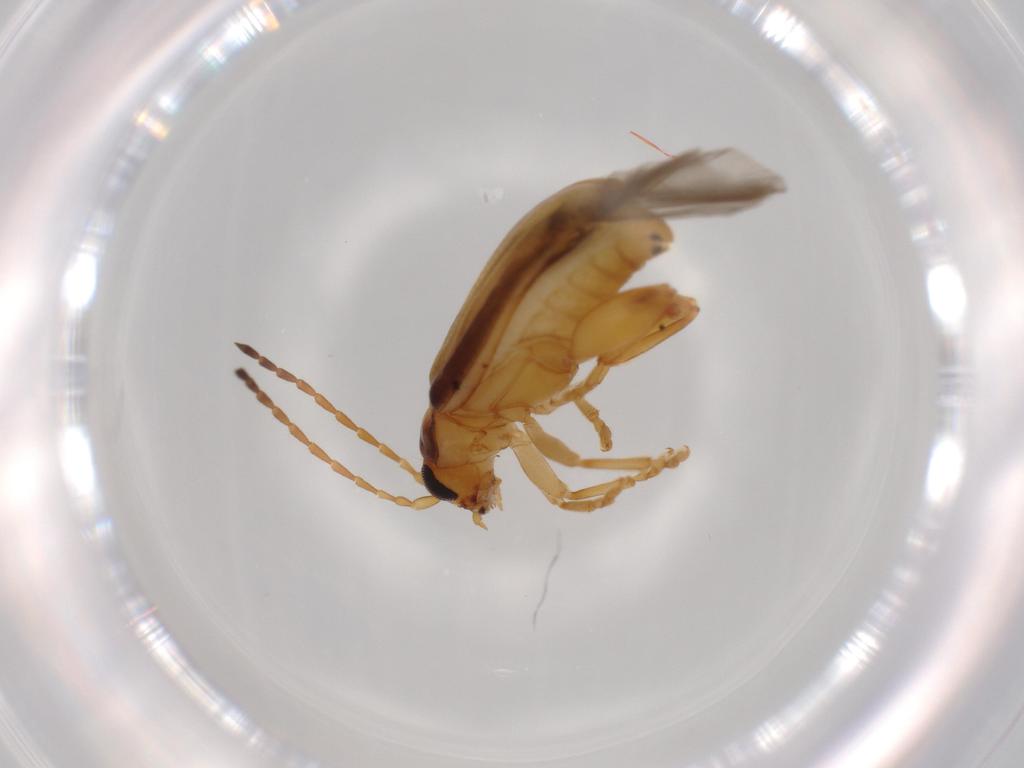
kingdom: Animalia
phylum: Arthropoda
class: Insecta
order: Coleoptera
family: Chrysomelidae
